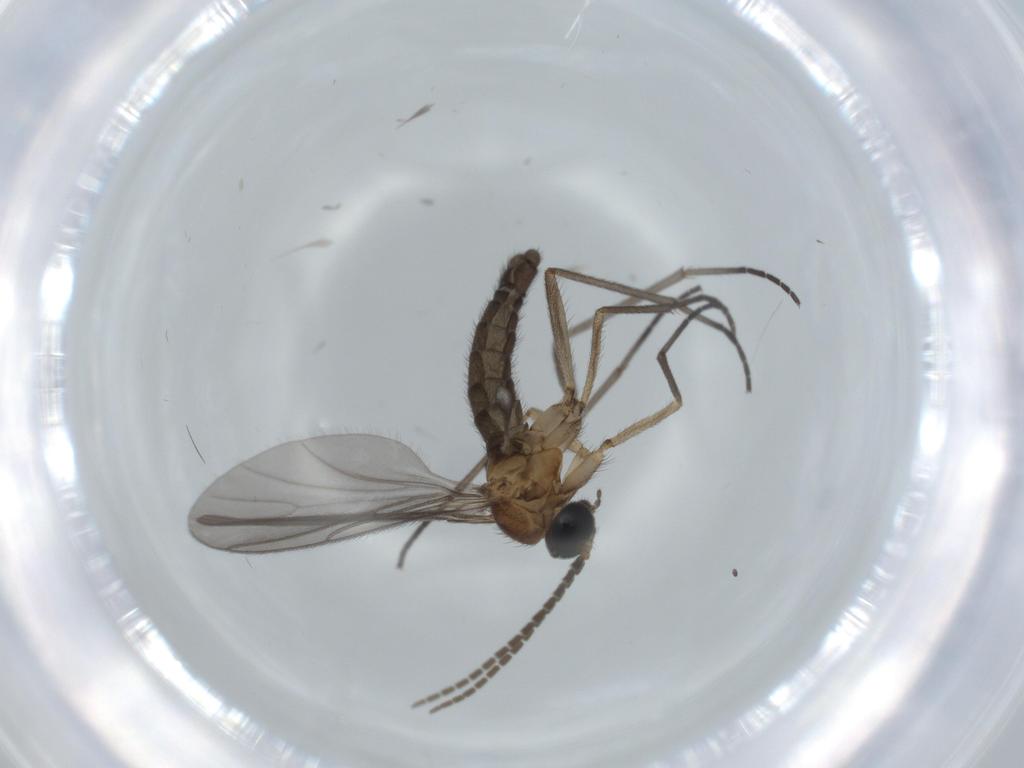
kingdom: Animalia
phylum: Arthropoda
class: Insecta
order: Diptera
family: Sciaridae
